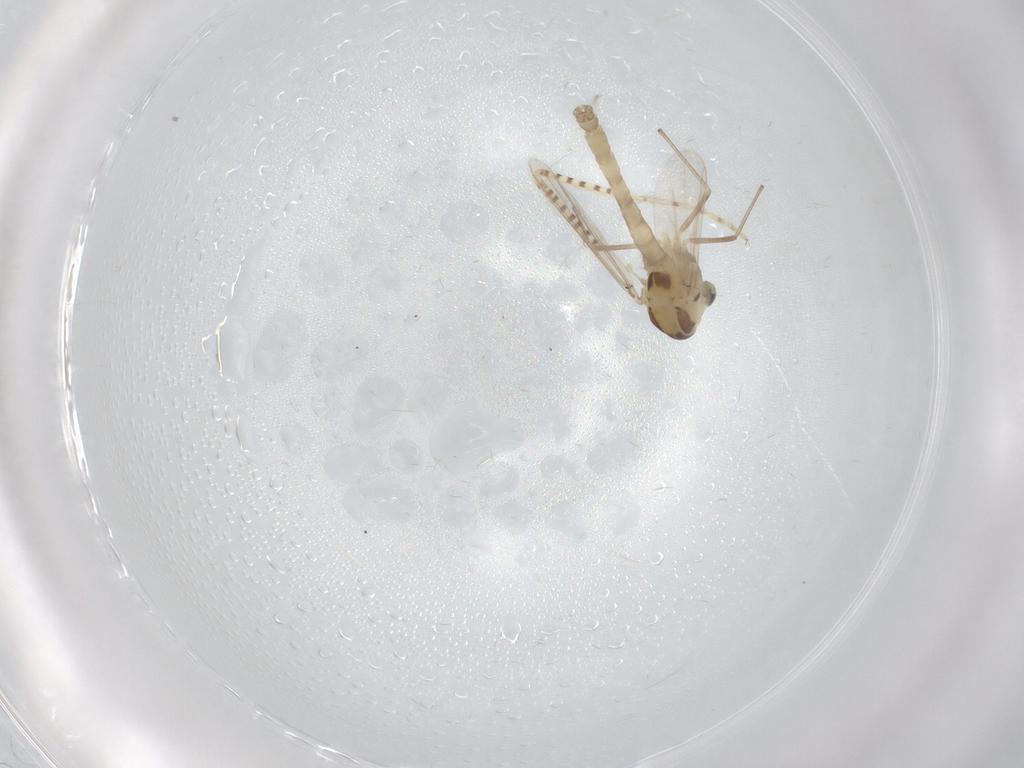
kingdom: Animalia
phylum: Arthropoda
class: Insecta
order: Diptera
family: Chironomidae
